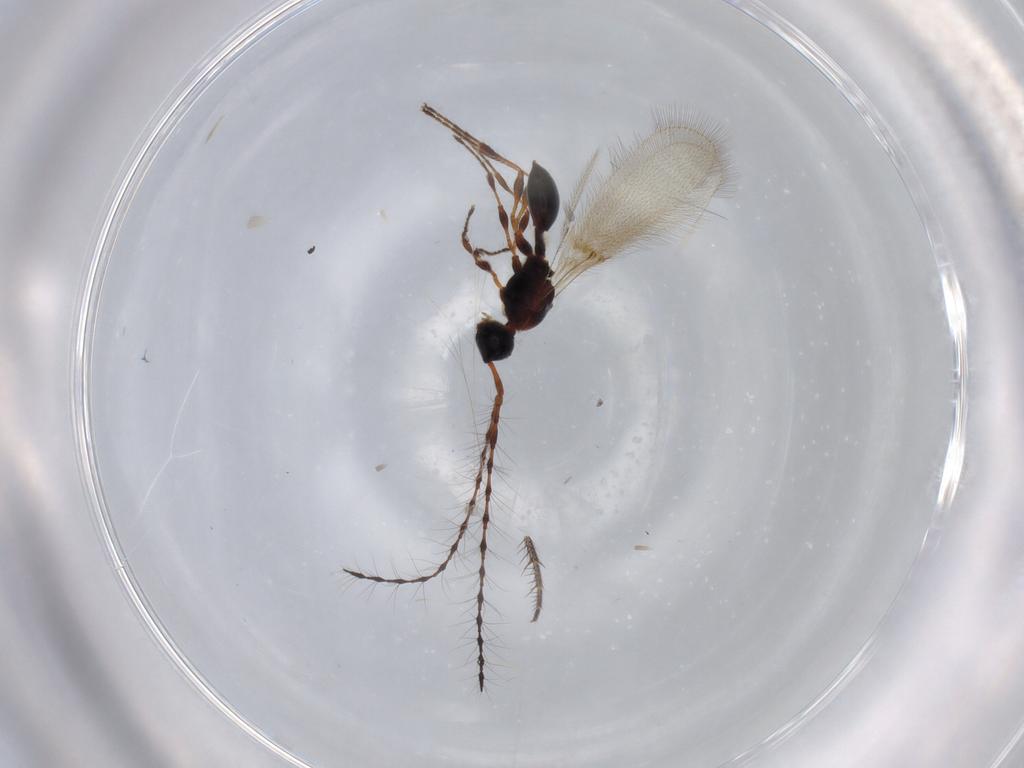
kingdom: Animalia
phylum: Arthropoda
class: Insecta
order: Hymenoptera
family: Diapriidae
